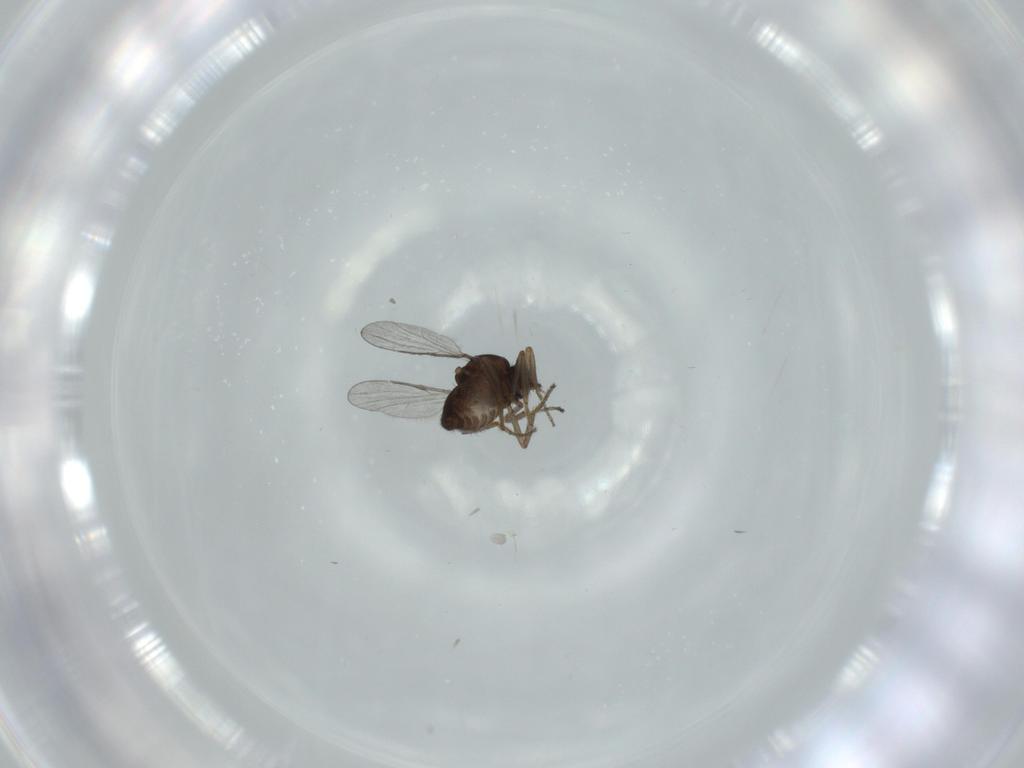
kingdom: Animalia
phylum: Arthropoda
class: Insecta
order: Diptera
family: Ceratopogonidae
